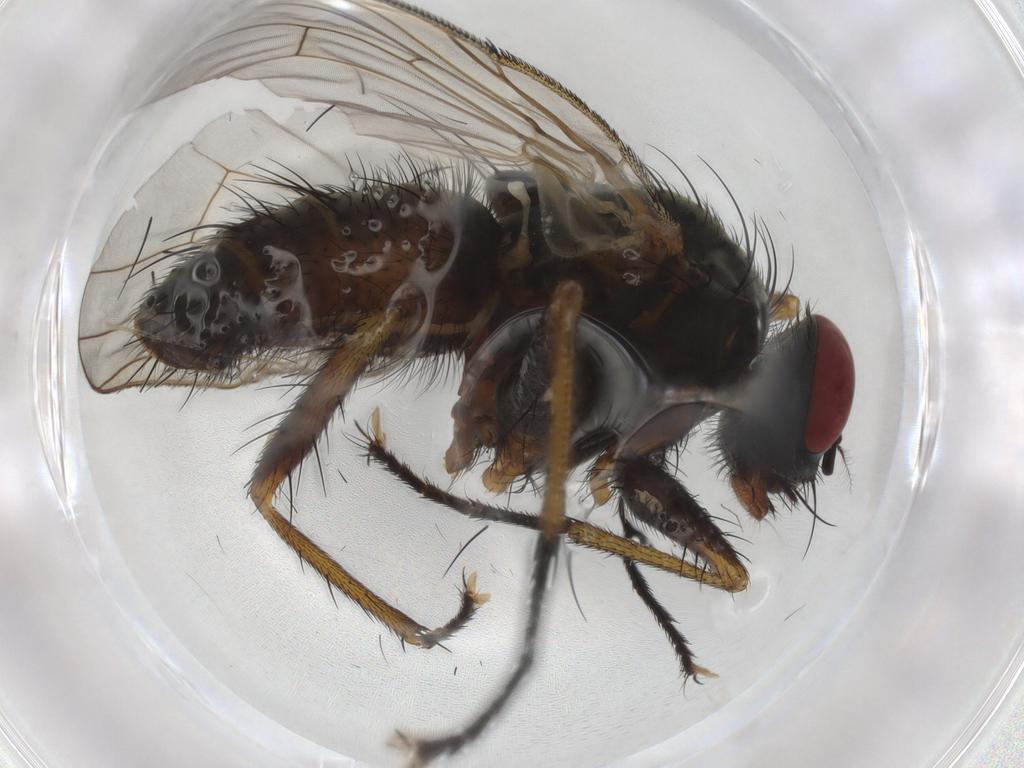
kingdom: Animalia
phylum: Arthropoda
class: Insecta
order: Diptera
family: Muscidae
